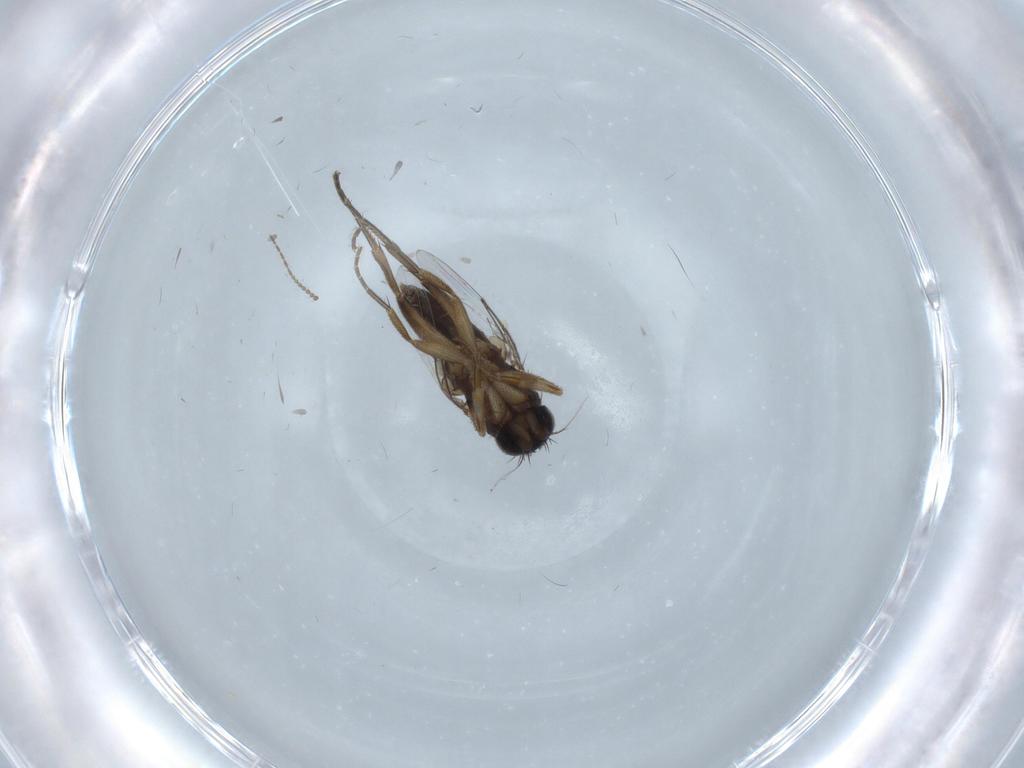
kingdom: Animalia
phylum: Arthropoda
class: Insecta
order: Diptera
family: Phoridae
